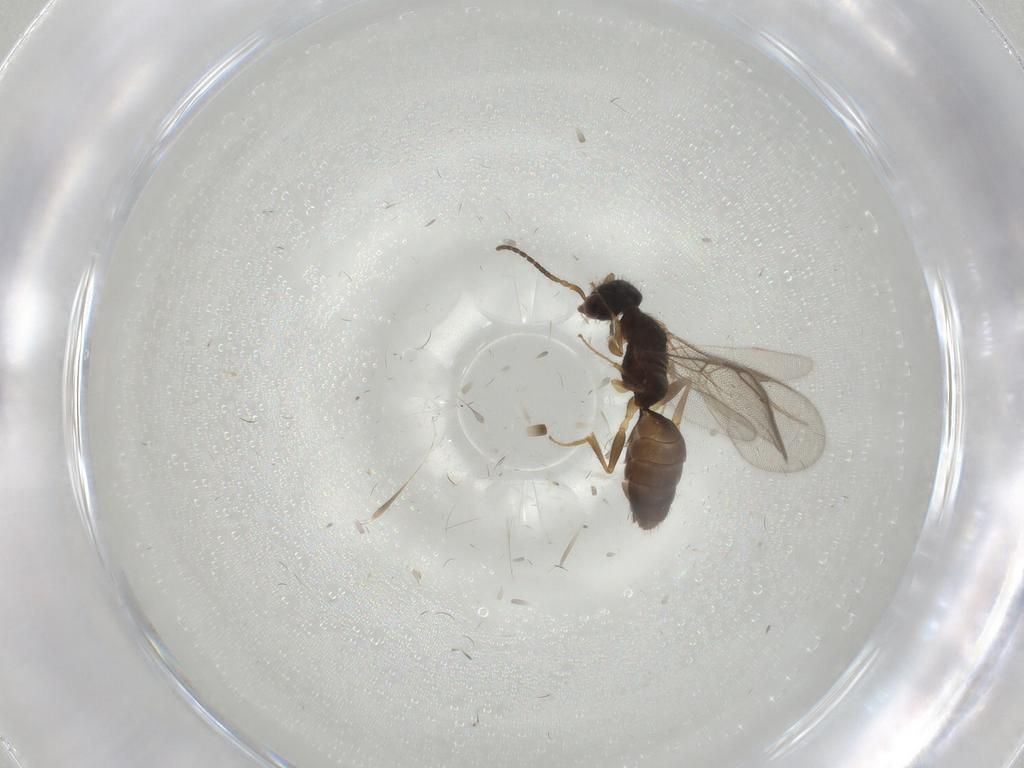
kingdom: Animalia
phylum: Arthropoda
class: Insecta
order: Hymenoptera
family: Bethylidae
